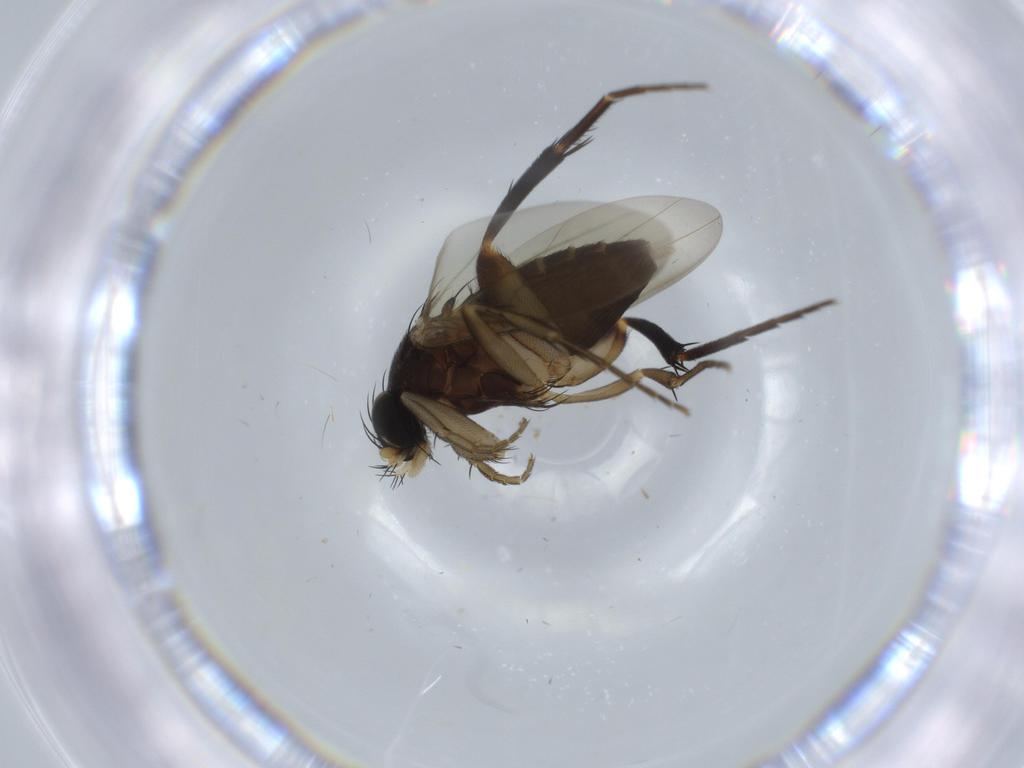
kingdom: Animalia
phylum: Arthropoda
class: Insecta
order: Diptera
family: Phoridae
